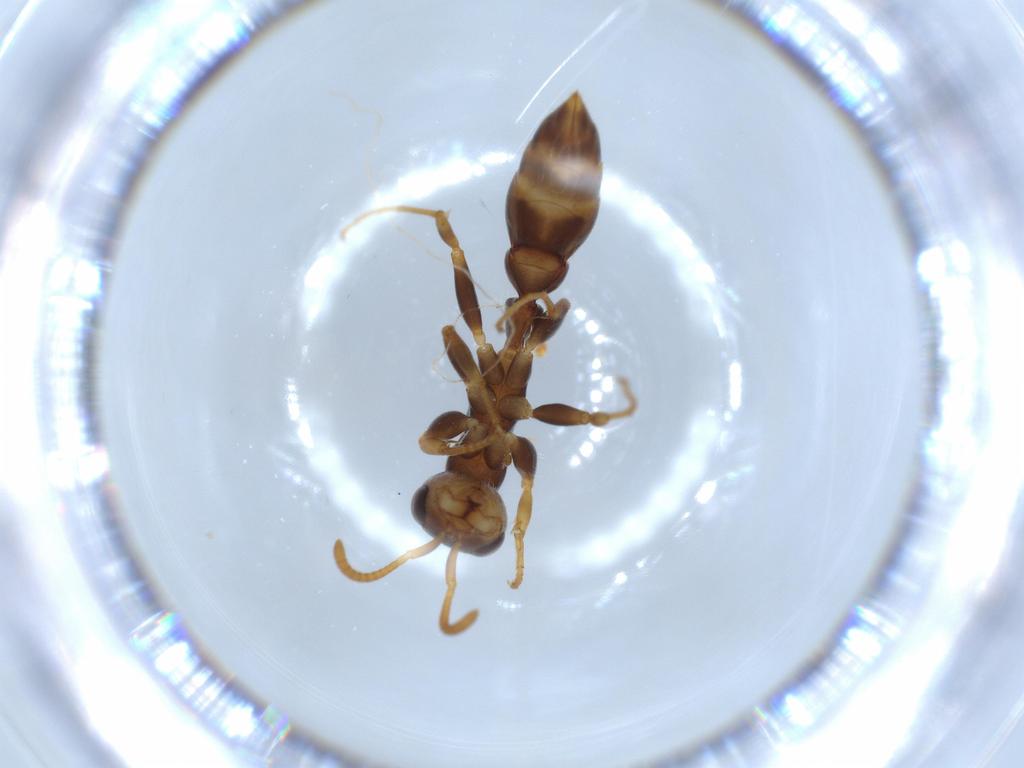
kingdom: Animalia
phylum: Arthropoda
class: Insecta
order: Hymenoptera
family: Formicidae
